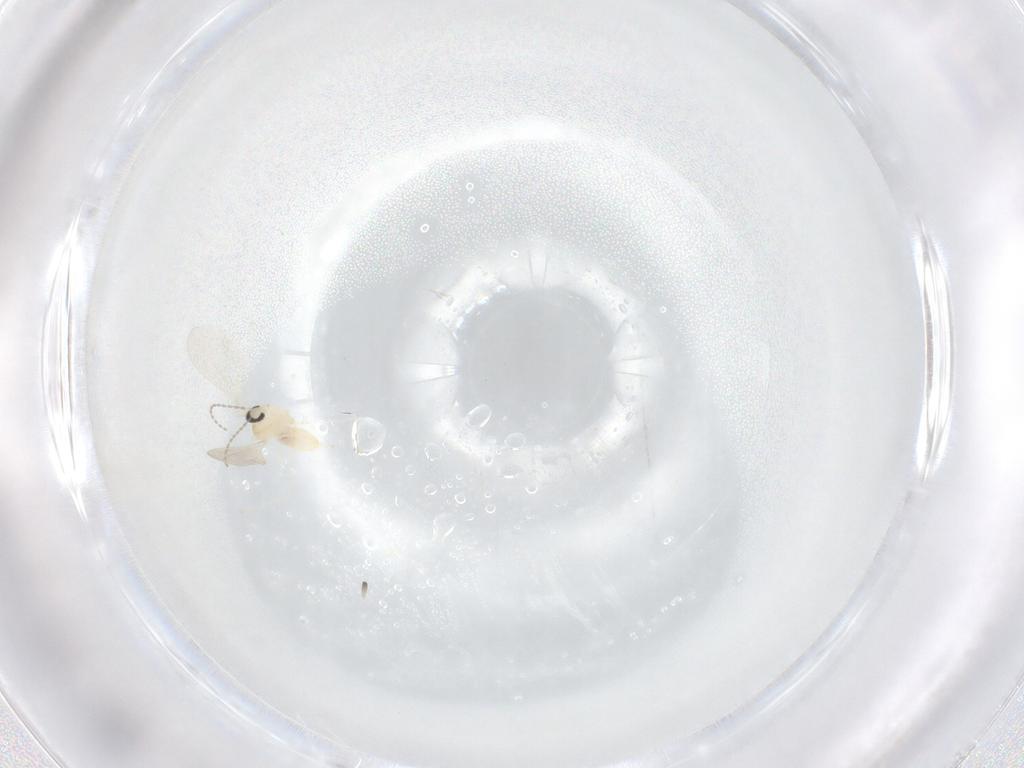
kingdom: Animalia
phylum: Arthropoda
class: Insecta
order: Diptera
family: Cecidomyiidae
